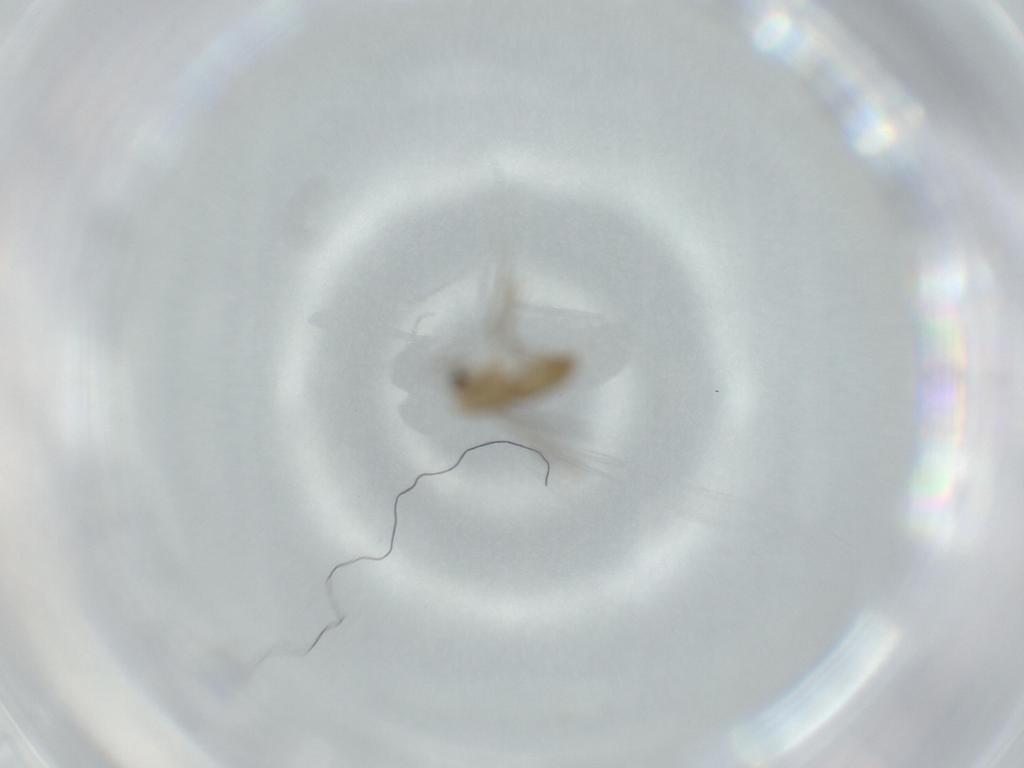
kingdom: Animalia
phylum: Arthropoda
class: Insecta
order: Diptera
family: Chironomidae
